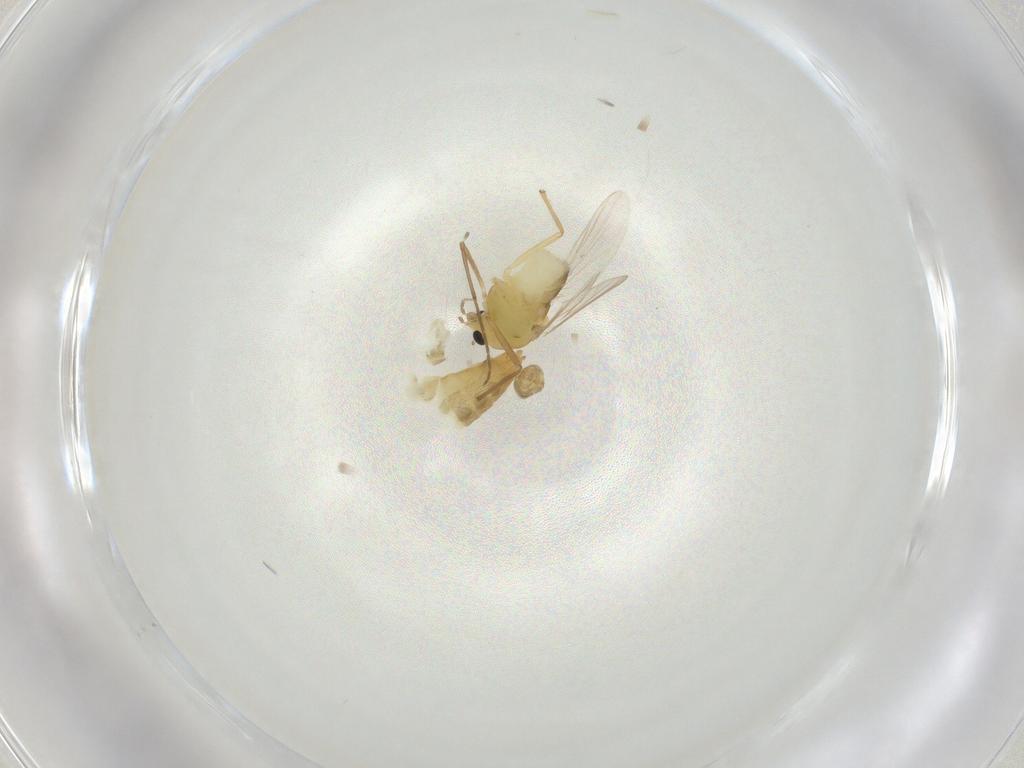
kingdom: Animalia
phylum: Arthropoda
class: Insecta
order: Diptera
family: Chironomidae
